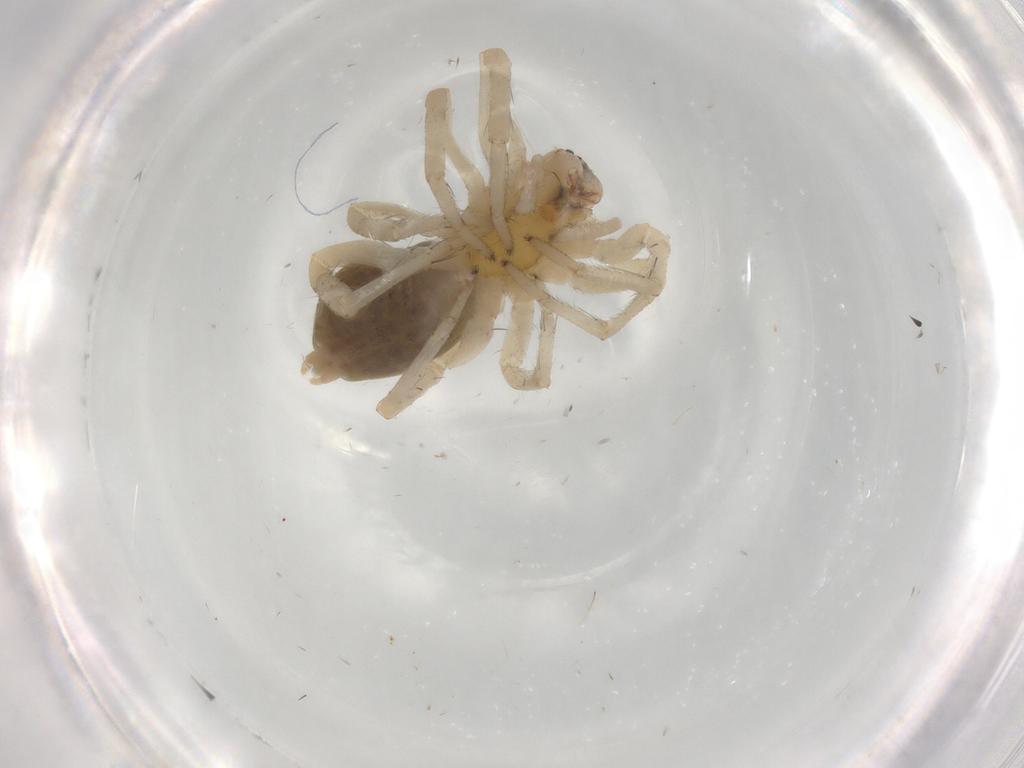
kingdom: Animalia
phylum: Arthropoda
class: Arachnida
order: Araneae
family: Anyphaenidae
